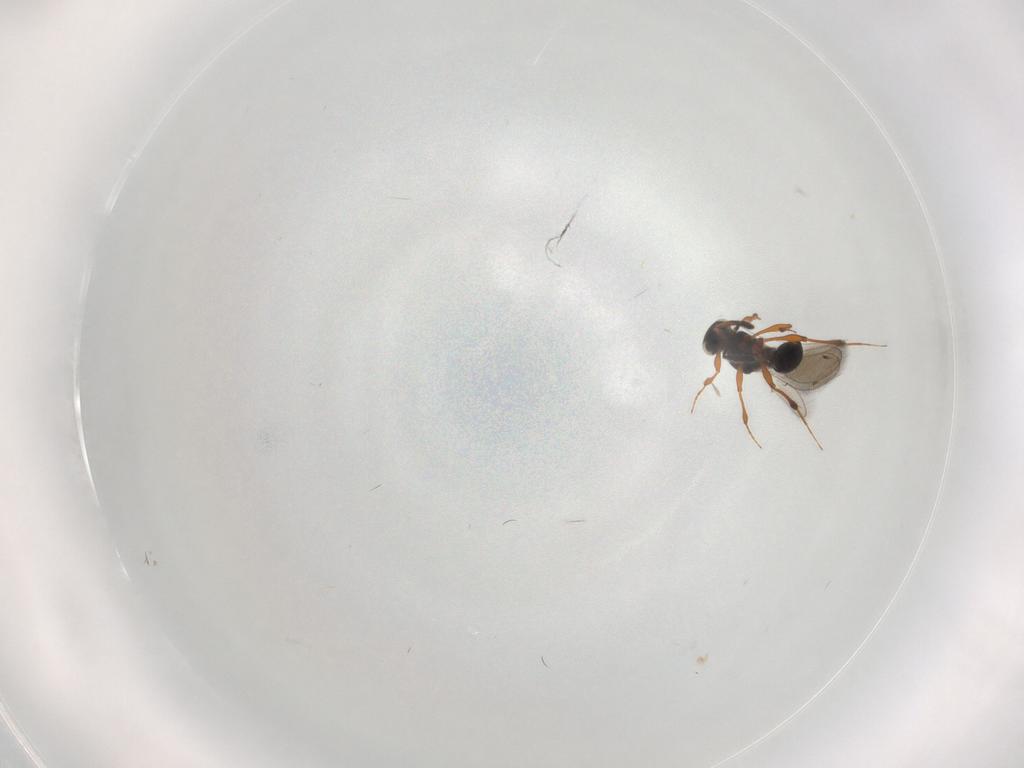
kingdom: Animalia
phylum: Arthropoda
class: Insecta
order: Hymenoptera
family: Platygastridae
